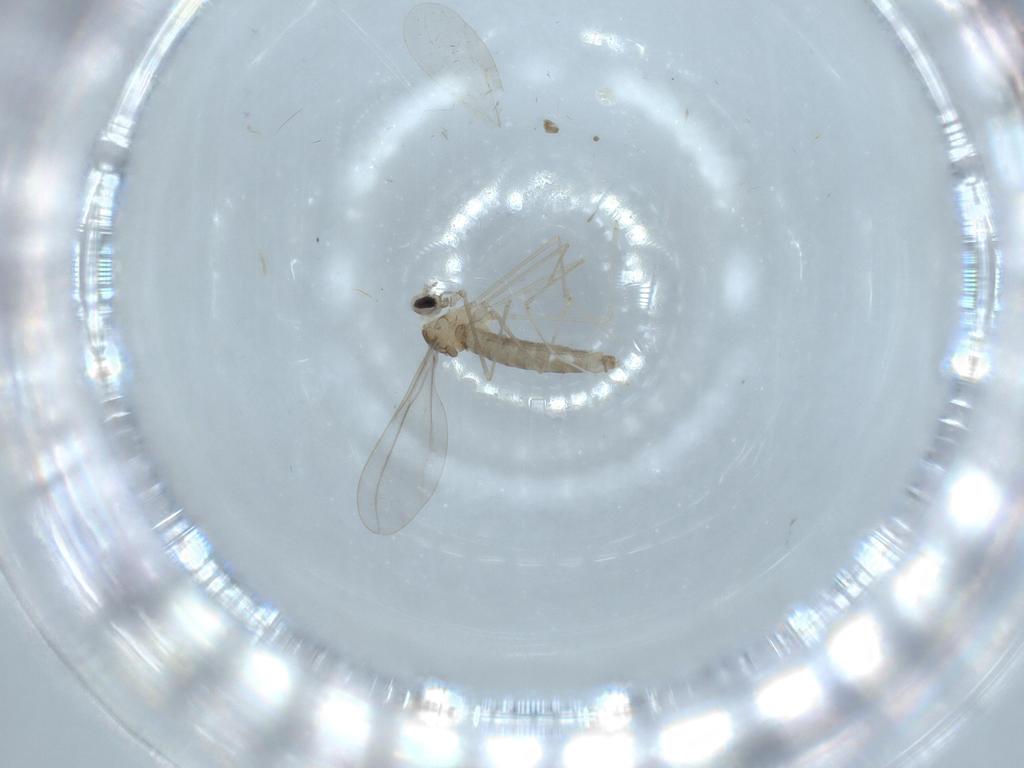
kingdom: Animalia
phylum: Arthropoda
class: Insecta
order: Diptera
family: Cecidomyiidae
